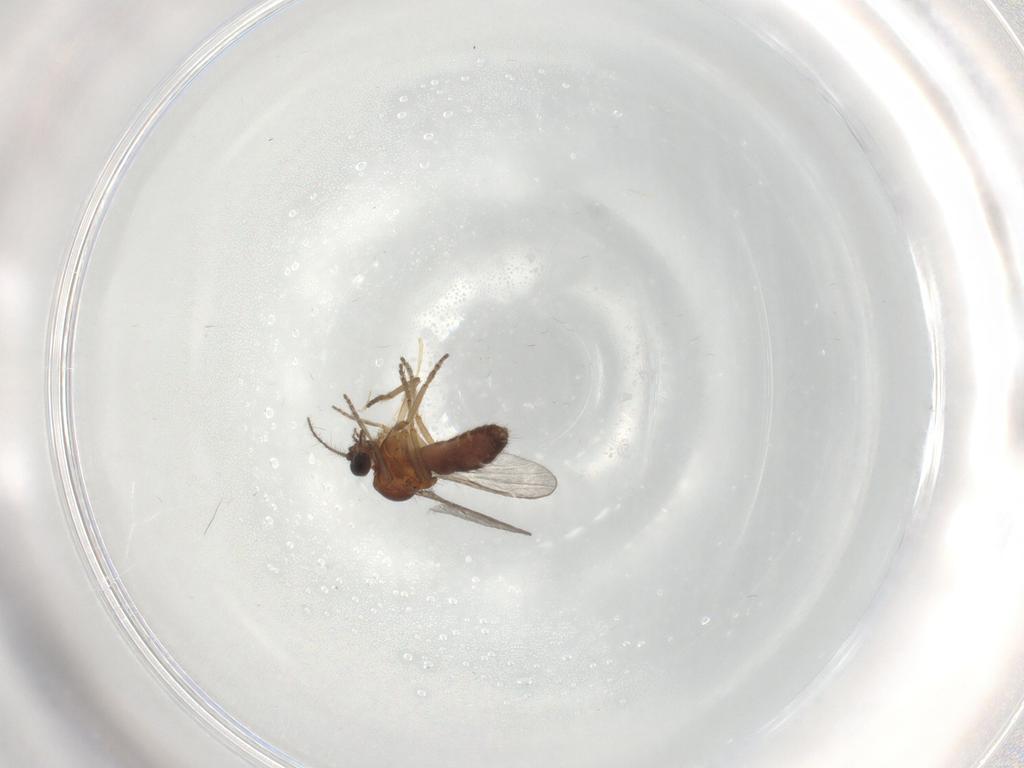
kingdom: Animalia
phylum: Arthropoda
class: Insecta
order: Diptera
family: Ceratopogonidae
